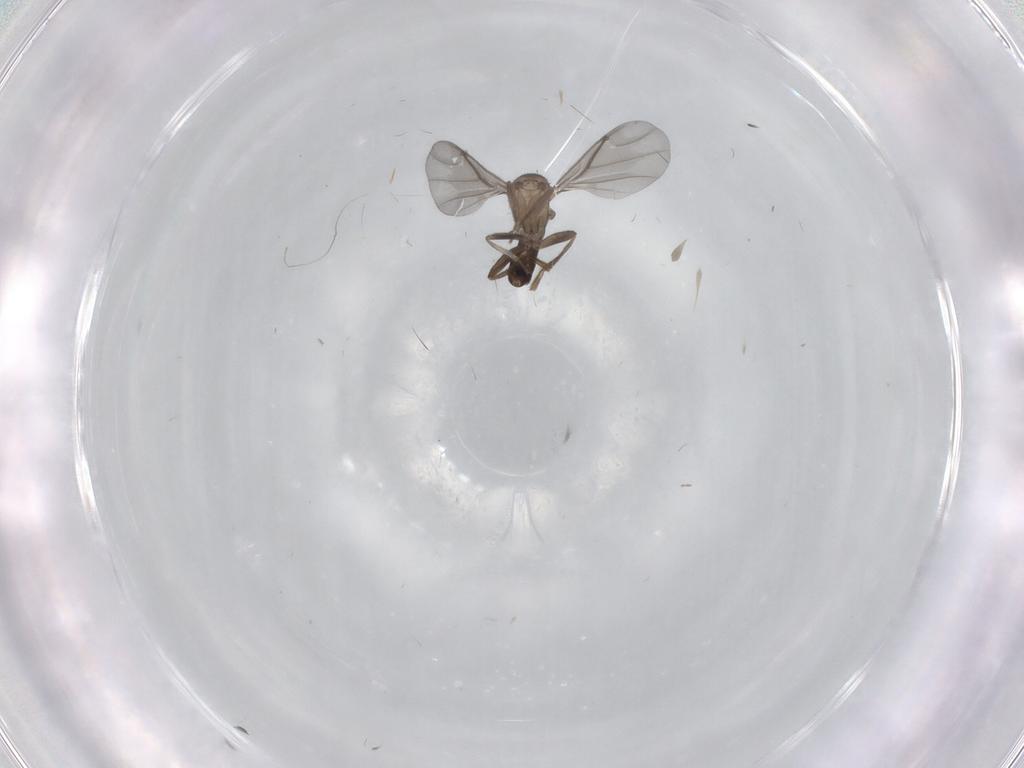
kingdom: Animalia
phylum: Arthropoda
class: Insecta
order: Diptera
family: Phoridae
